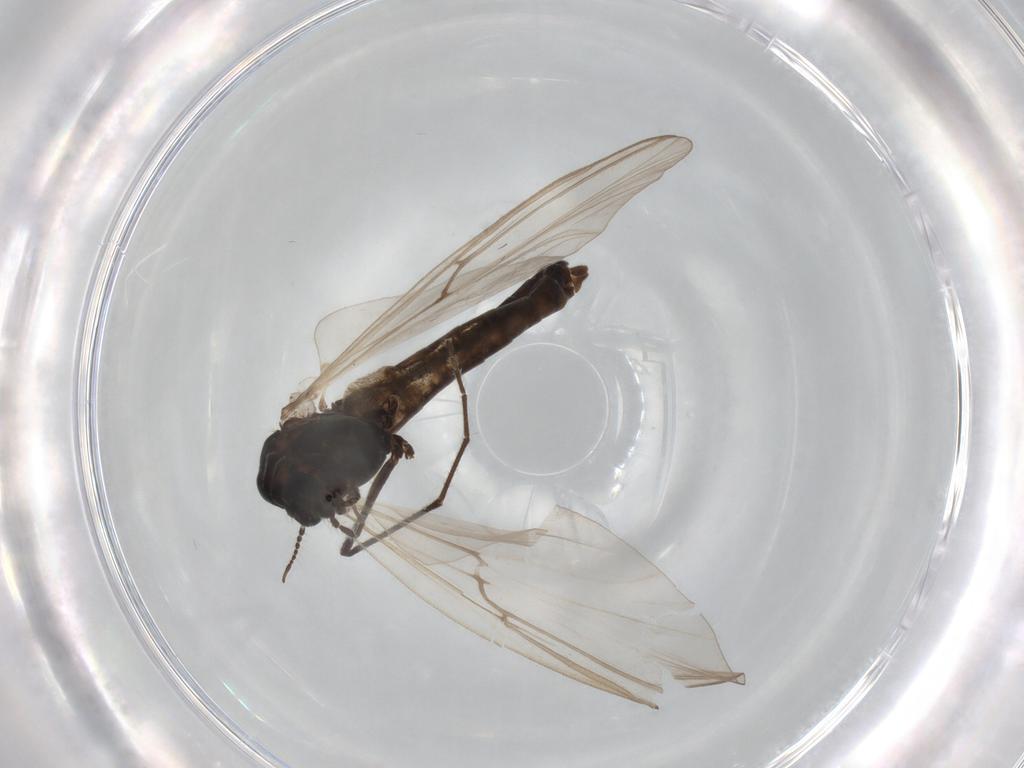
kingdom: Animalia
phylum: Arthropoda
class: Insecta
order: Diptera
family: Chironomidae
